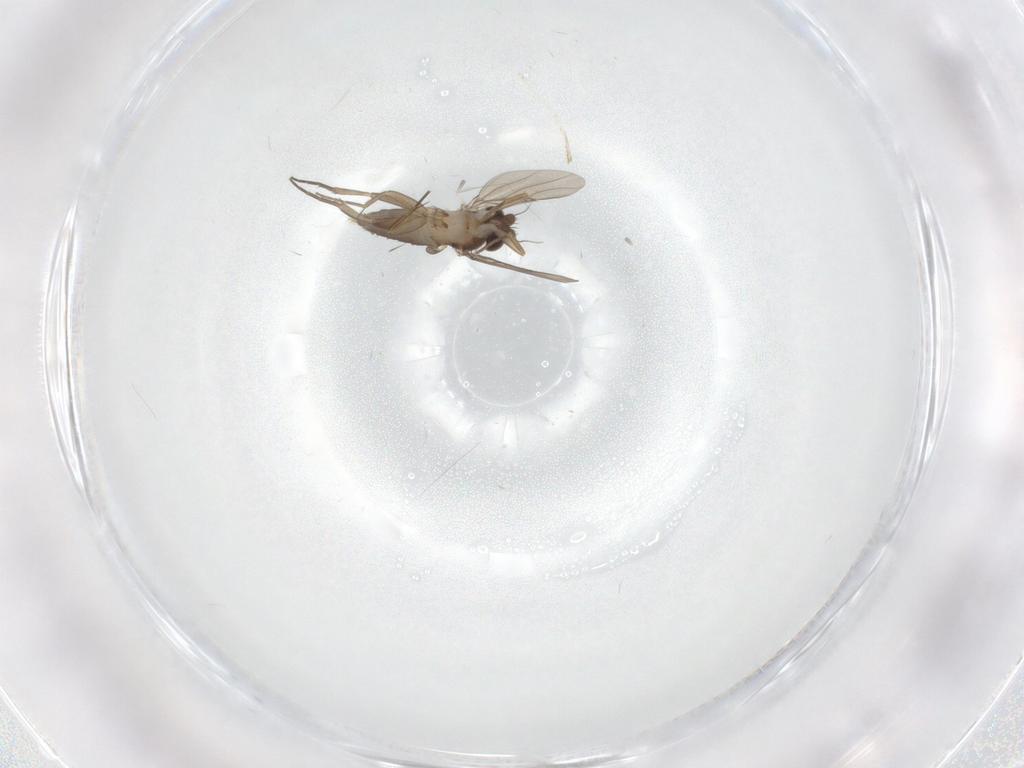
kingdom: Animalia
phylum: Arthropoda
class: Insecta
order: Diptera
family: Phoridae
